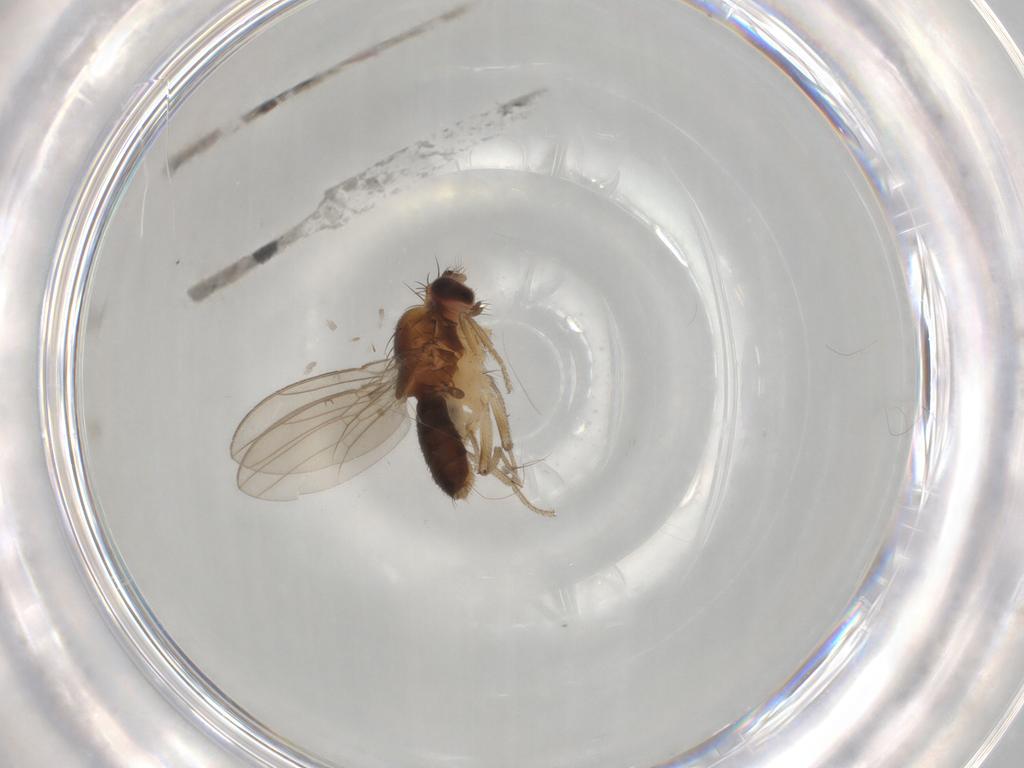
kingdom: Animalia
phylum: Arthropoda
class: Insecta
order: Diptera
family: Drosophilidae
